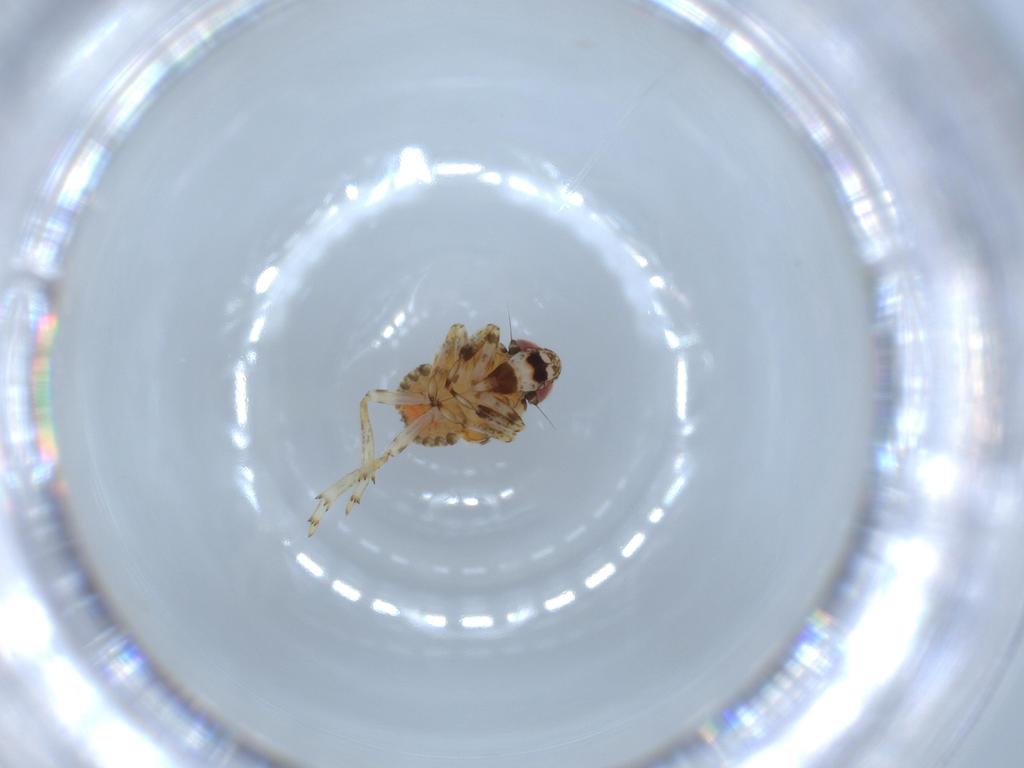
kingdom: Animalia
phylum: Arthropoda
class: Insecta
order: Hemiptera
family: Issidae
